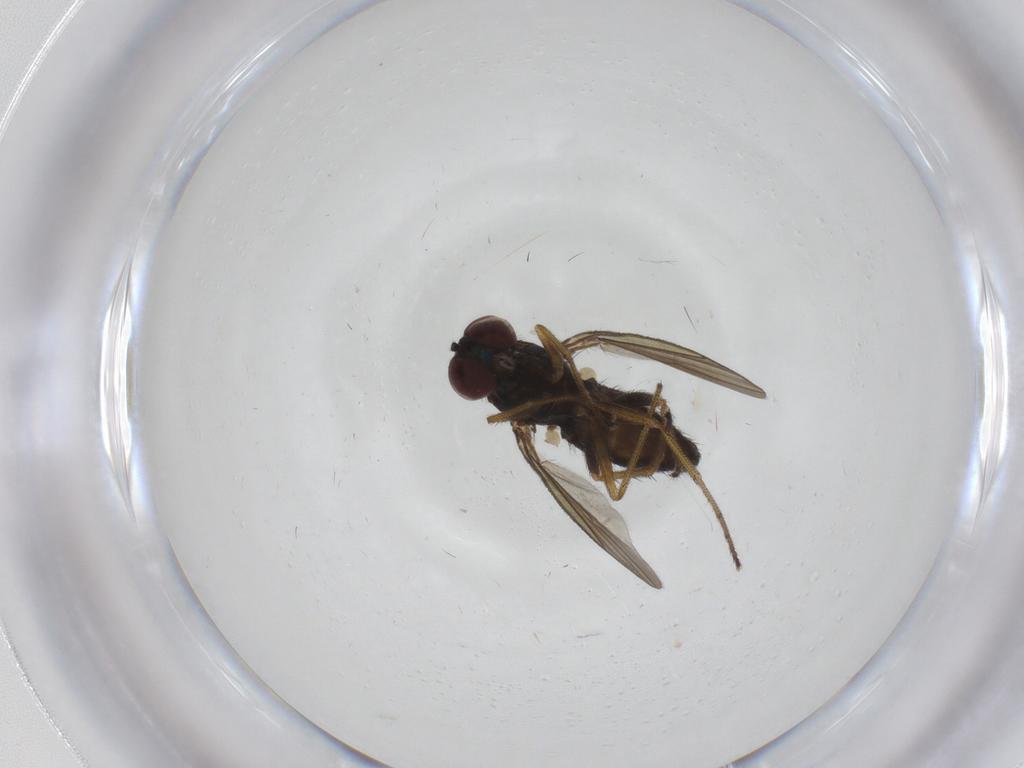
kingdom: Animalia
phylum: Arthropoda
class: Insecta
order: Diptera
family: Dolichopodidae
